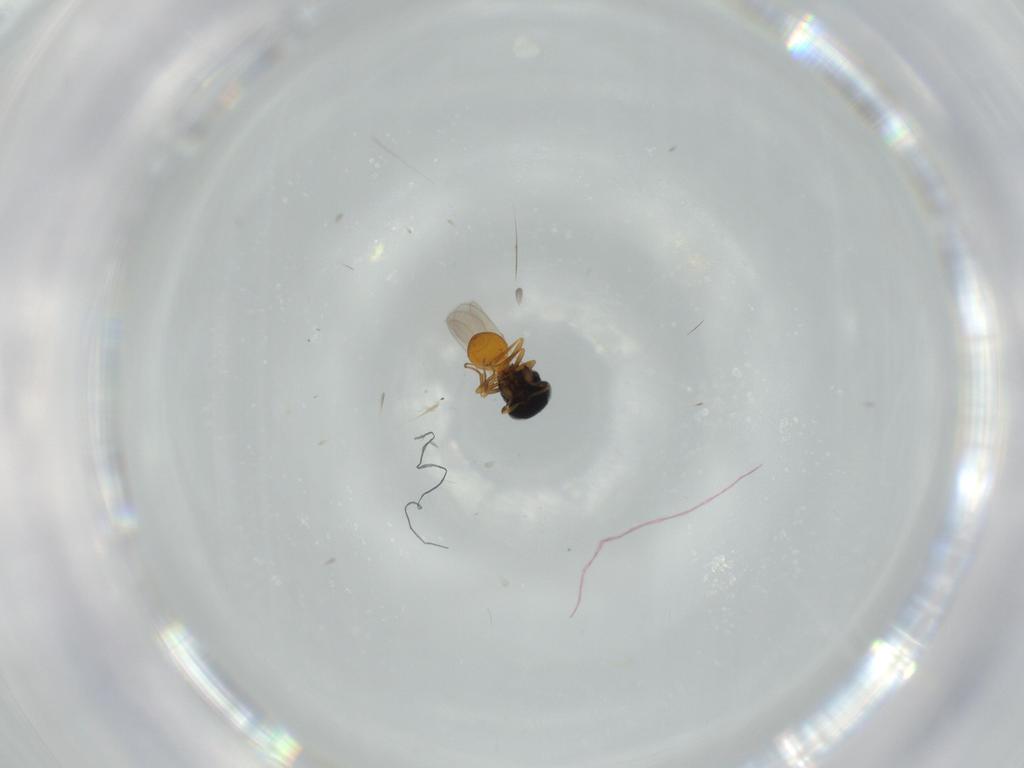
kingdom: Animalia
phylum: Arthropoda
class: Insecta
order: Hymenoptera
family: Scelionidae
